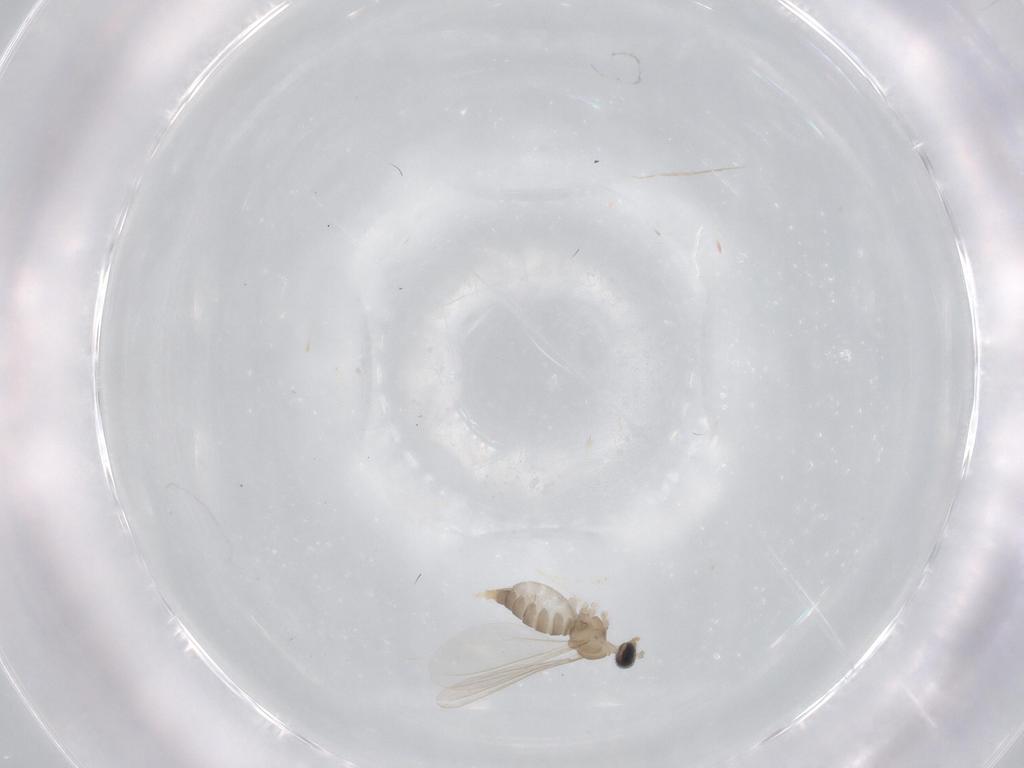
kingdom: Animalia
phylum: Arthropoda
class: Insecta
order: Diptera
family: Cecidomyiidae
